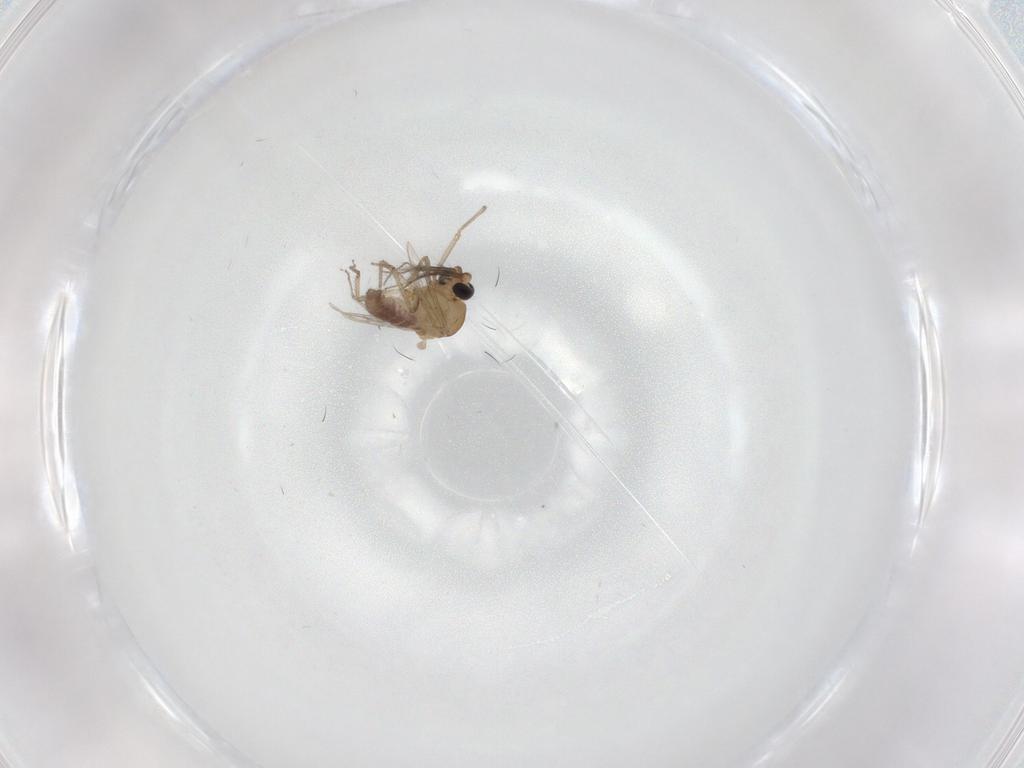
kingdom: Animalia
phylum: Arthropoda
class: Insecta
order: Diptera
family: Ceratopogonidae
